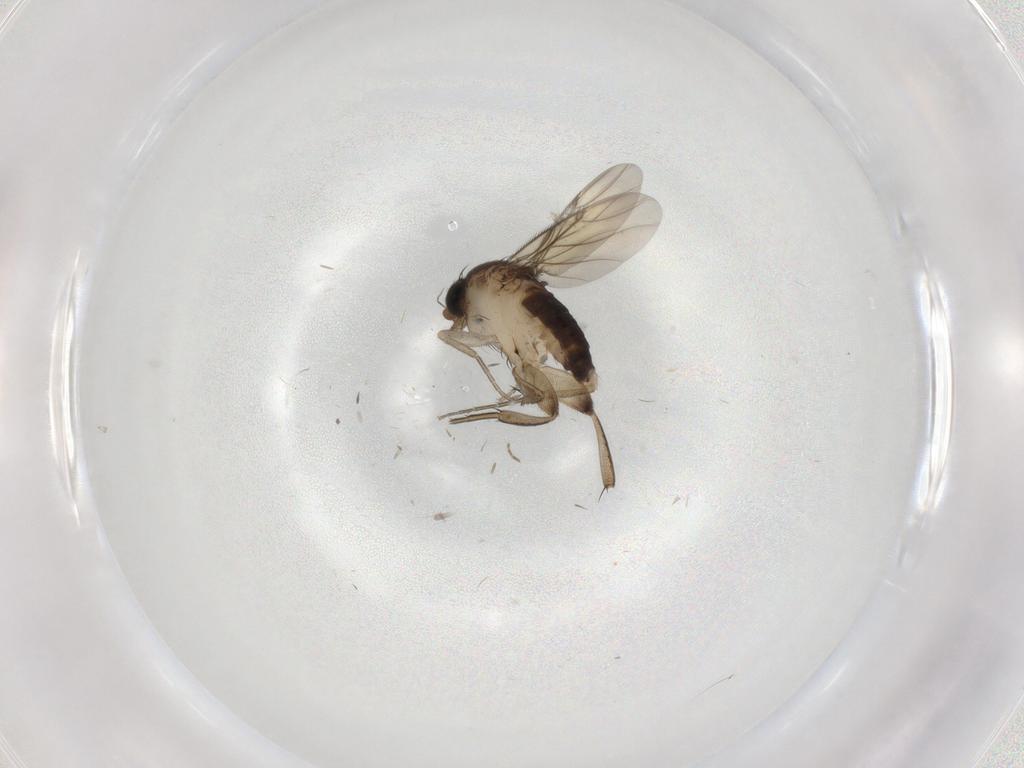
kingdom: Animalia
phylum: Arthropoda
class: Insecta
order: Diptera
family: Phoridae
